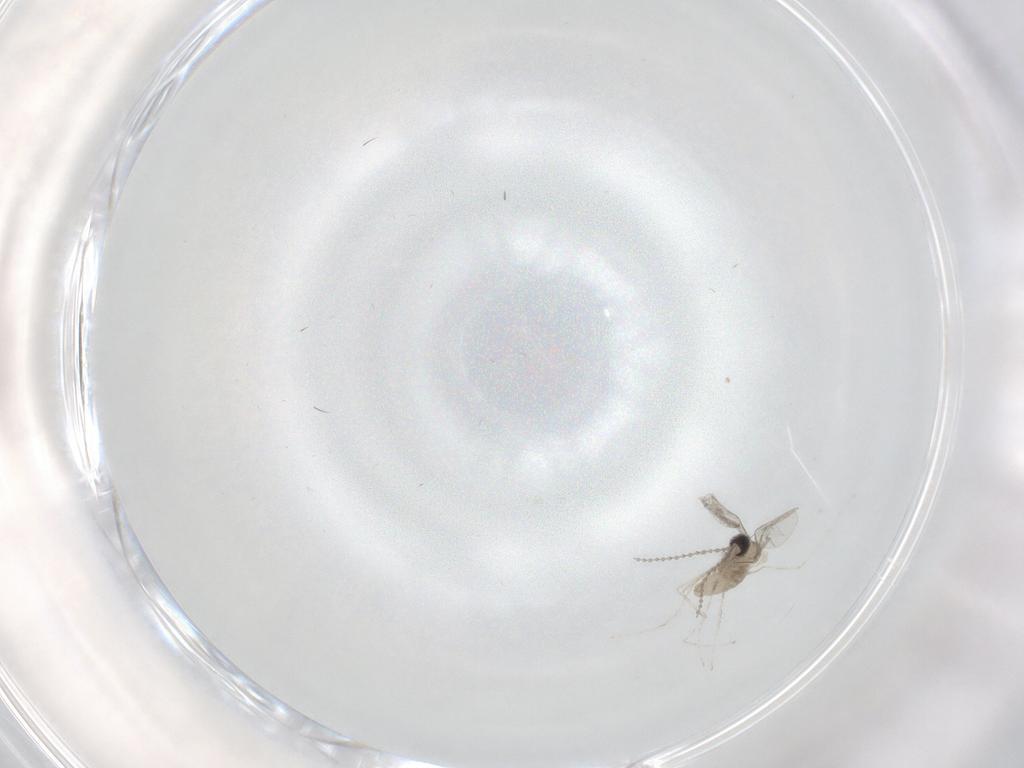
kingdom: Animalia
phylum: Arthropoda
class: Insecta
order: Diptera
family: Cecidomyiidae
